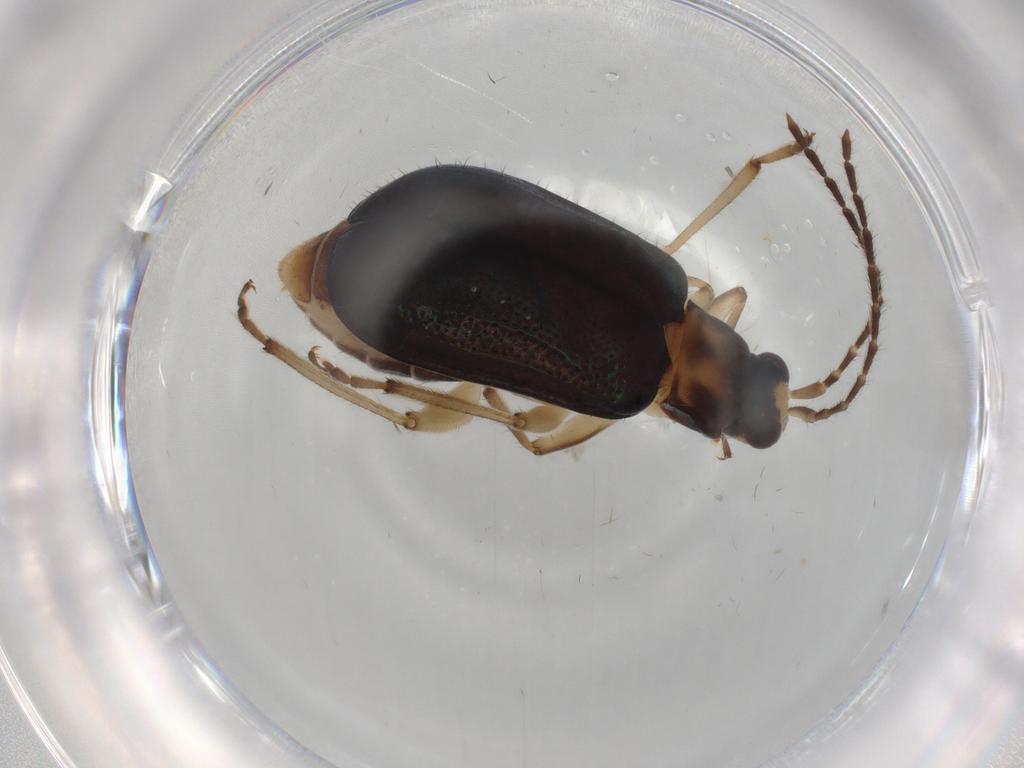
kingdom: Animalia
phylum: Arthropoda
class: Insecta
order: Coleoptera
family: Chrysomelidae
